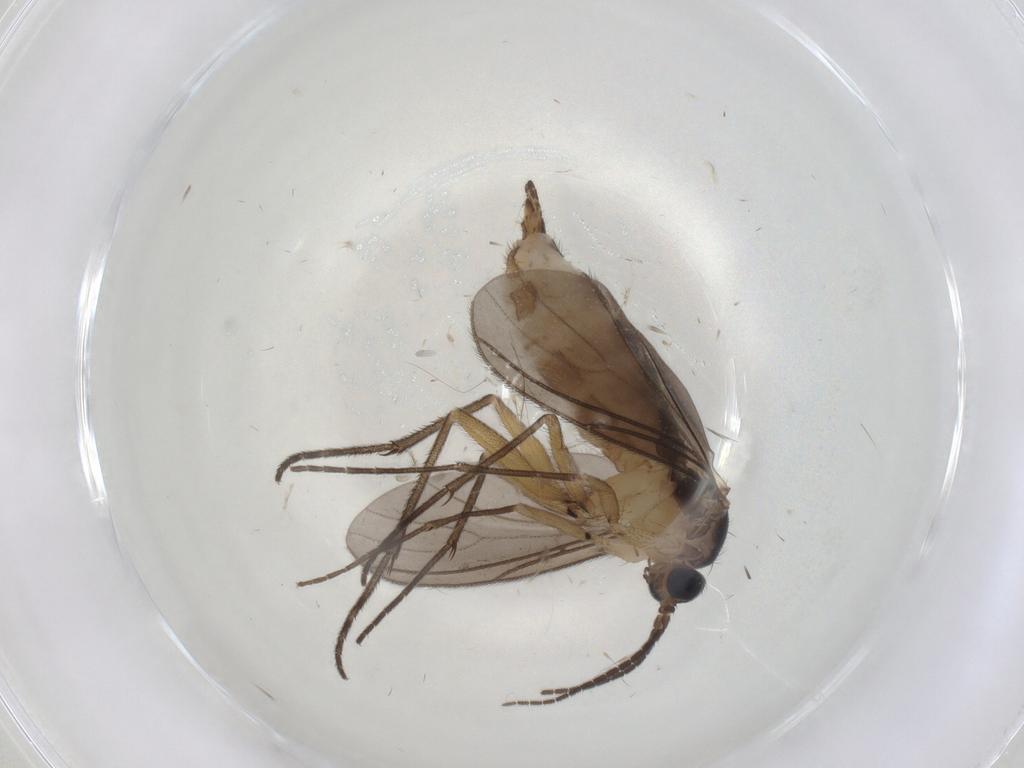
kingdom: Animalia
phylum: Arthropoda
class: Insecta
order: Diptera
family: Sciaridae
